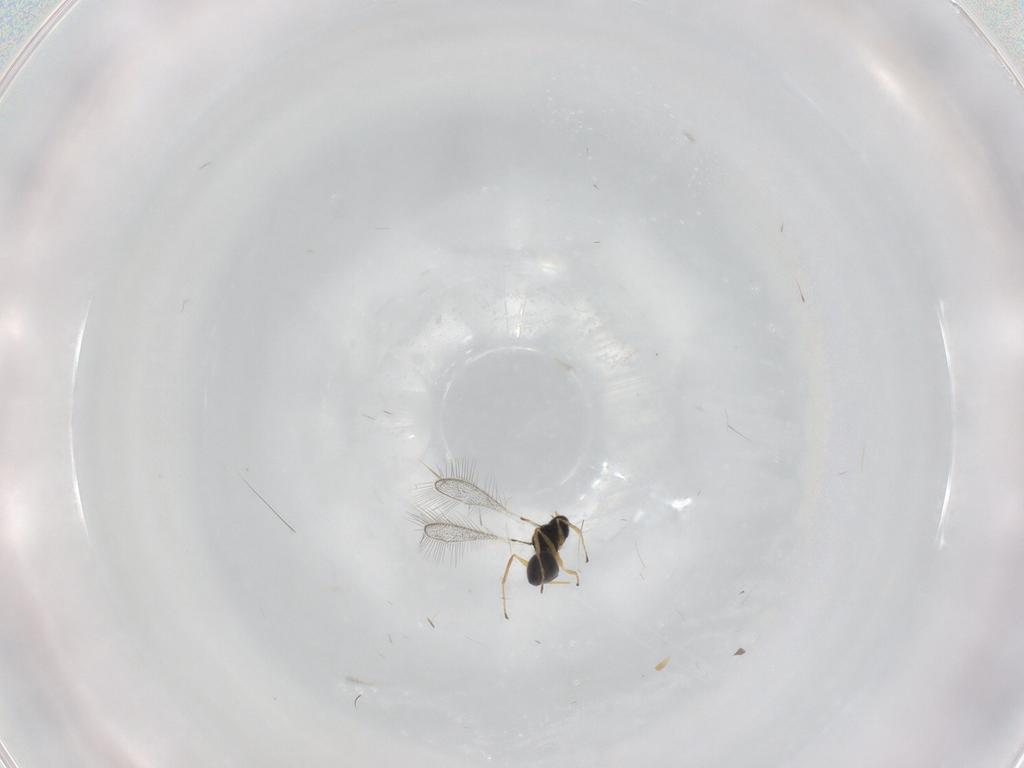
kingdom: Animalia
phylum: Arthropoda
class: Insecta
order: Hymenoptera
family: Mymaridae
